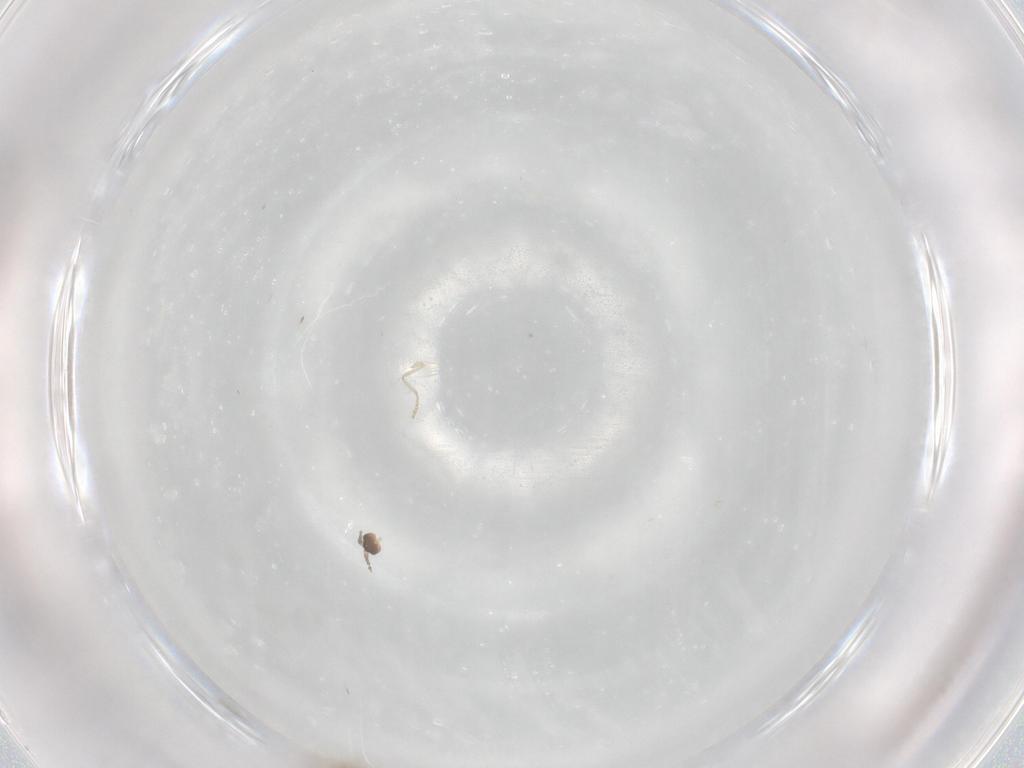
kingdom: Animalia
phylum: Arthropoda
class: Insecta
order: Diptera
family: Cecidomyiidae
